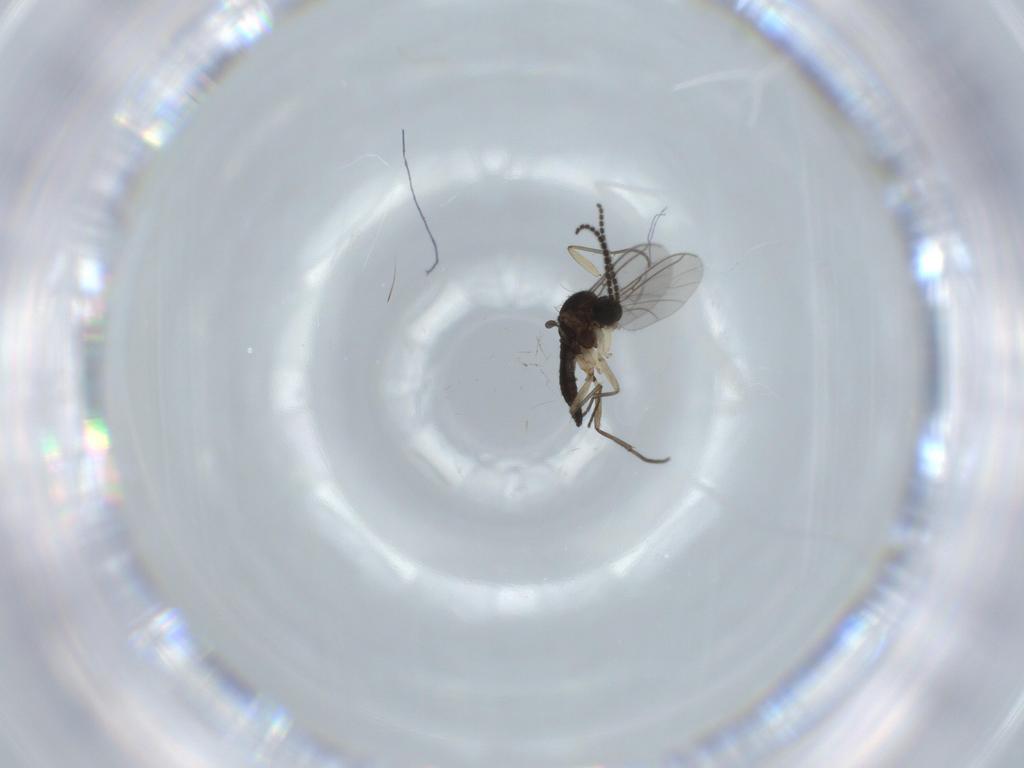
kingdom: Animalia
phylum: Arthropoda
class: Insecta
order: Diptera
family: Sciaridae
